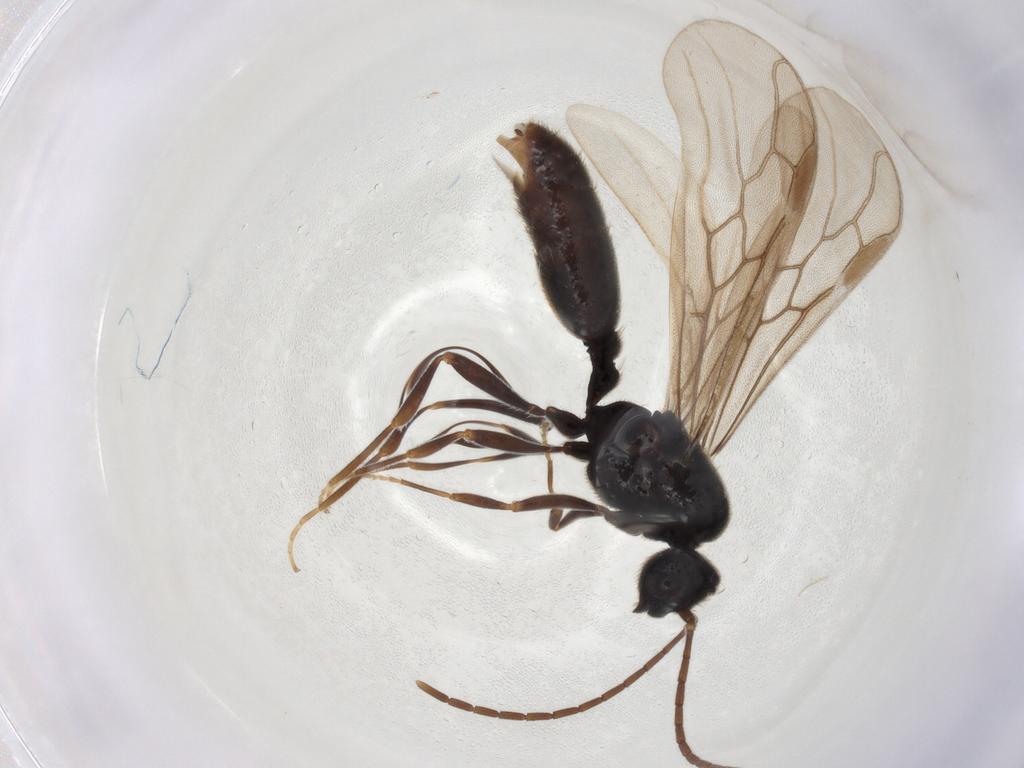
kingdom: Animalia
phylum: Arthropoda
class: Insecta
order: Hymenoptera
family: Formicidae
